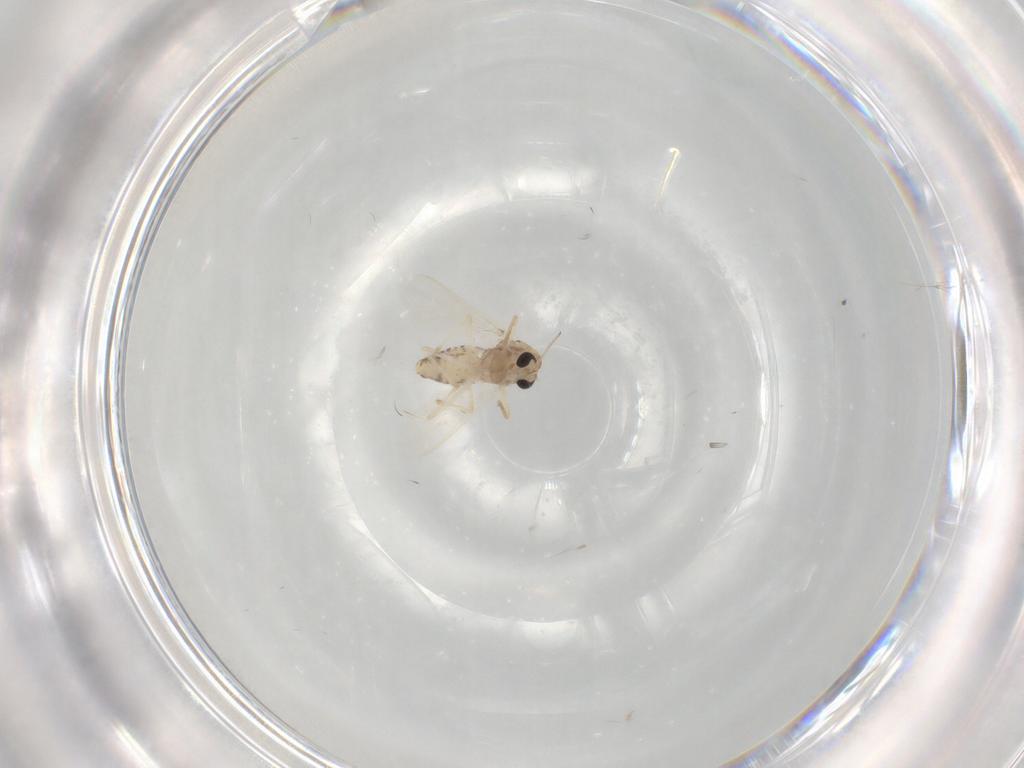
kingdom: Animalia
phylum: Arthropoda
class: Insecta
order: Diptera
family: Chironomidae
